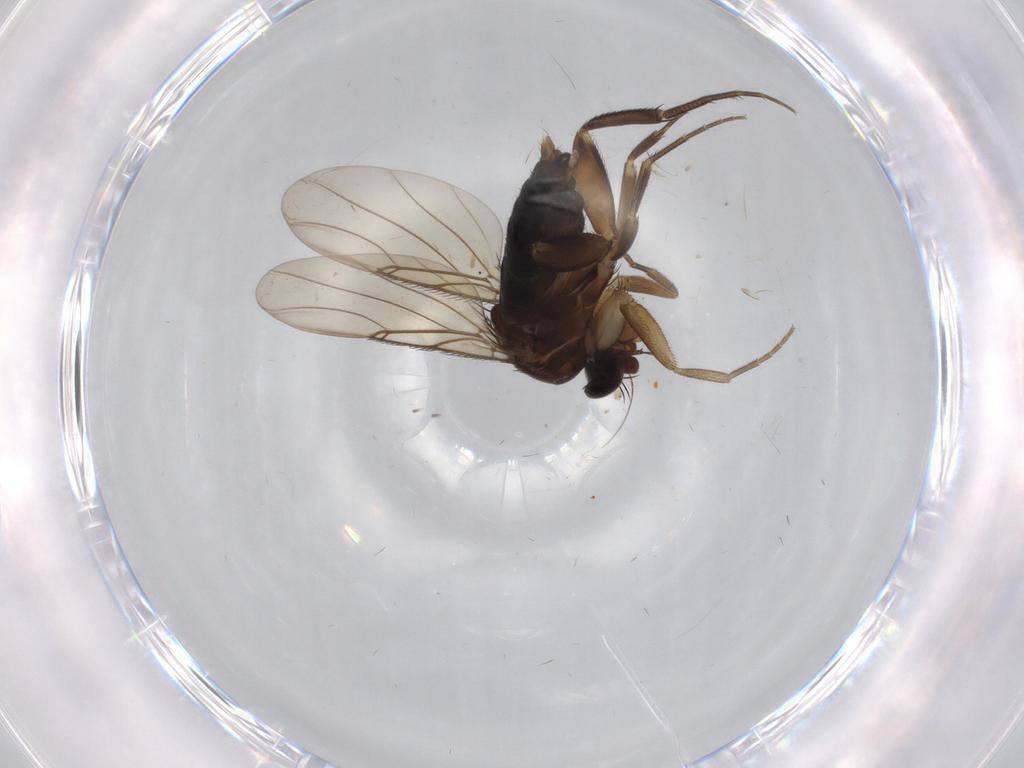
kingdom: Animalia
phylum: Arthropoda
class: Insecta
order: Diptera
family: Phoridae
